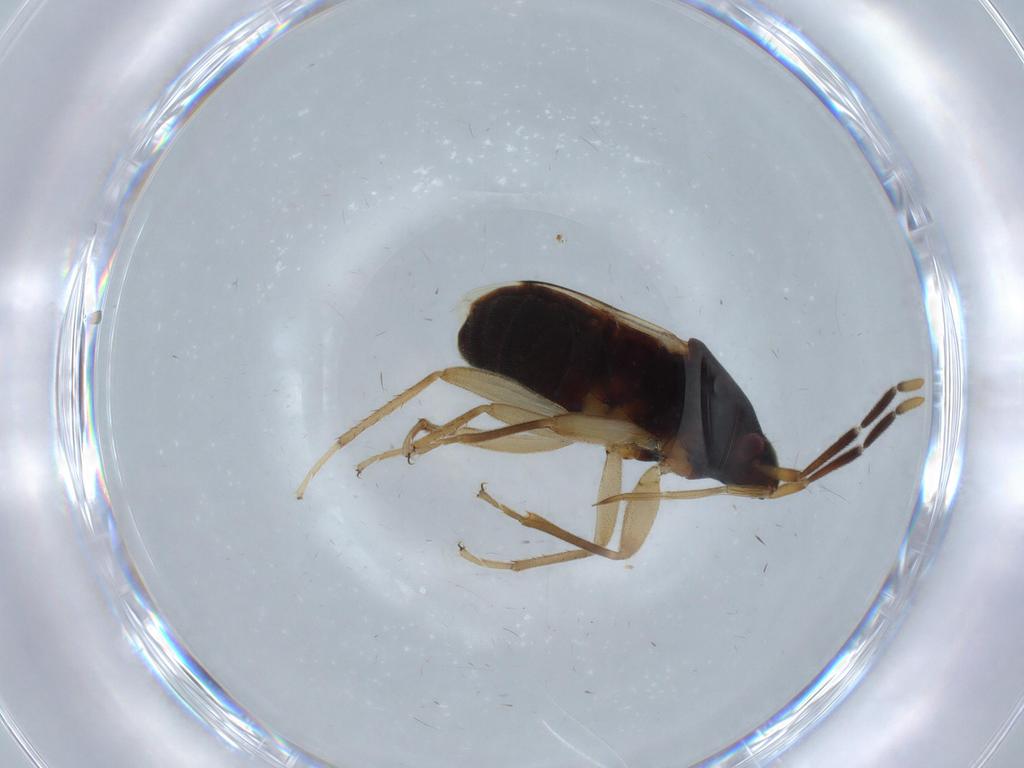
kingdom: Animalia
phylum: Arthropoda
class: Insecta
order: Hemiptera
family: Rhyparochromidae
